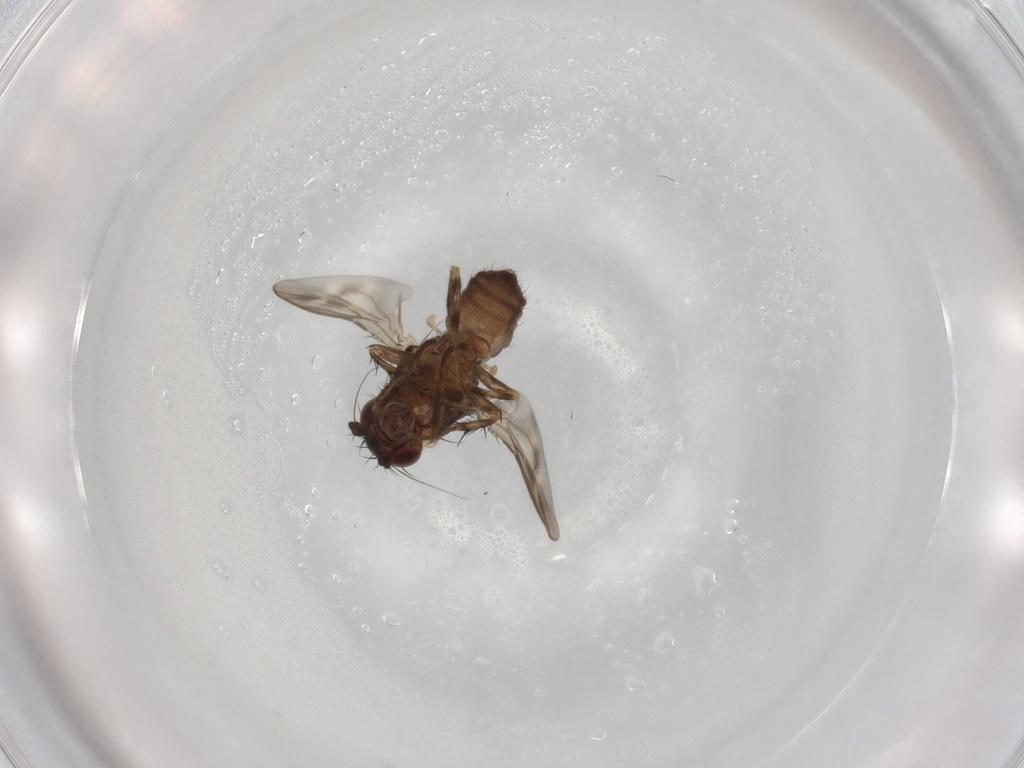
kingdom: Animalia
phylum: Arthropoda
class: Insecta
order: Diptera
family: Sphaeroceridae
